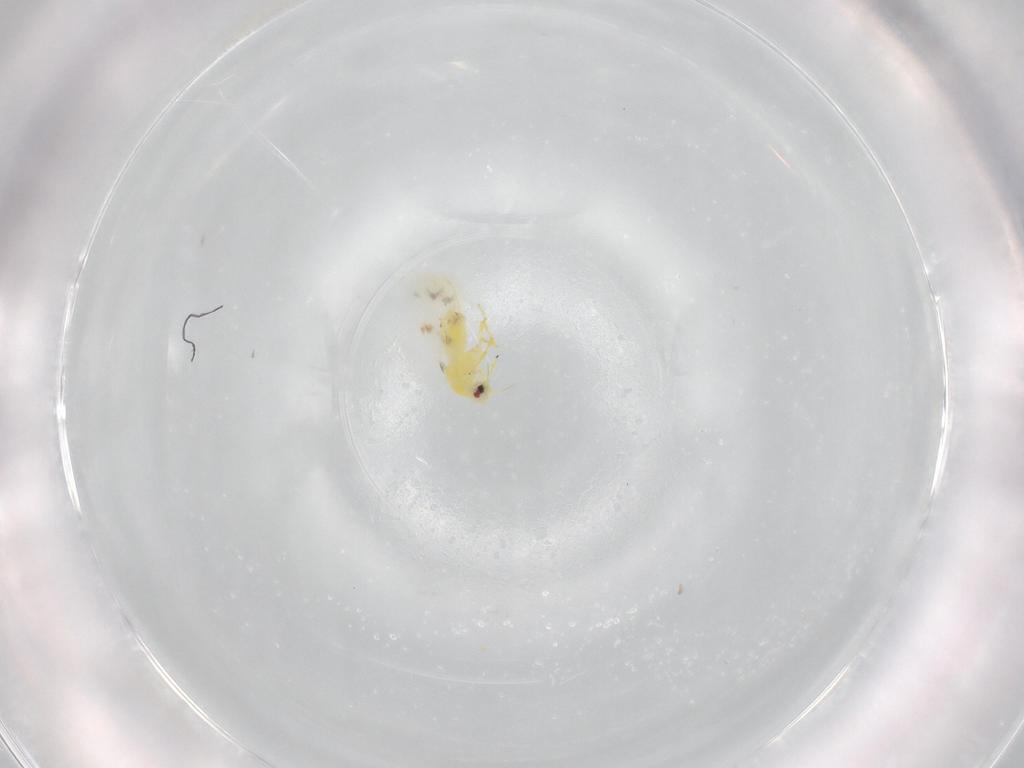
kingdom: Animalia
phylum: Arthropoda
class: Insecta
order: Hemiptera
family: Aleyrodidae
